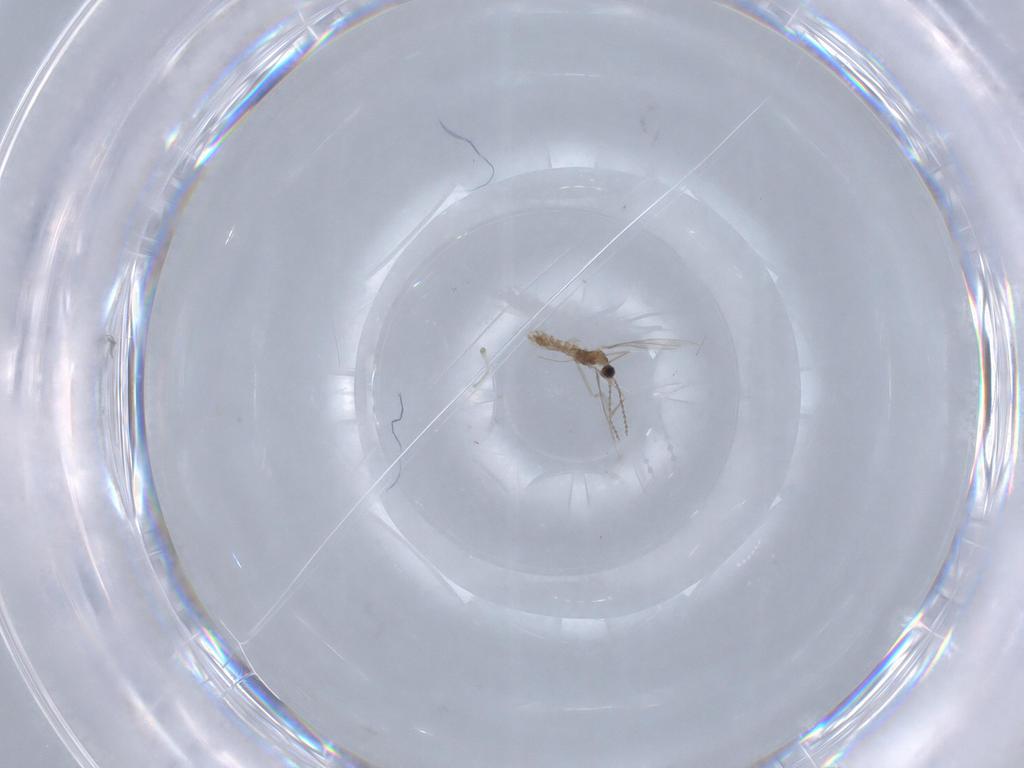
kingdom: Animalia
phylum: Arthropoda
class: Insecta
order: Diptera
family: Cecidomyiidae
